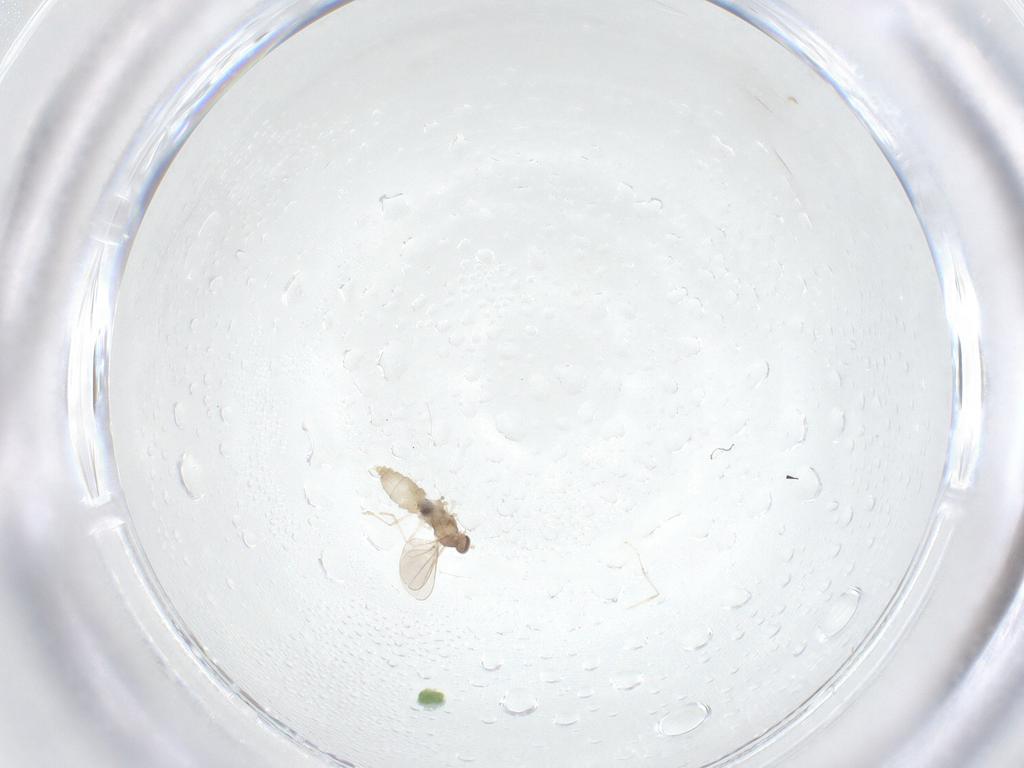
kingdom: Animalia
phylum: Arthropoda
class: Insecta
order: Diptera
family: Cecidomyiidae
